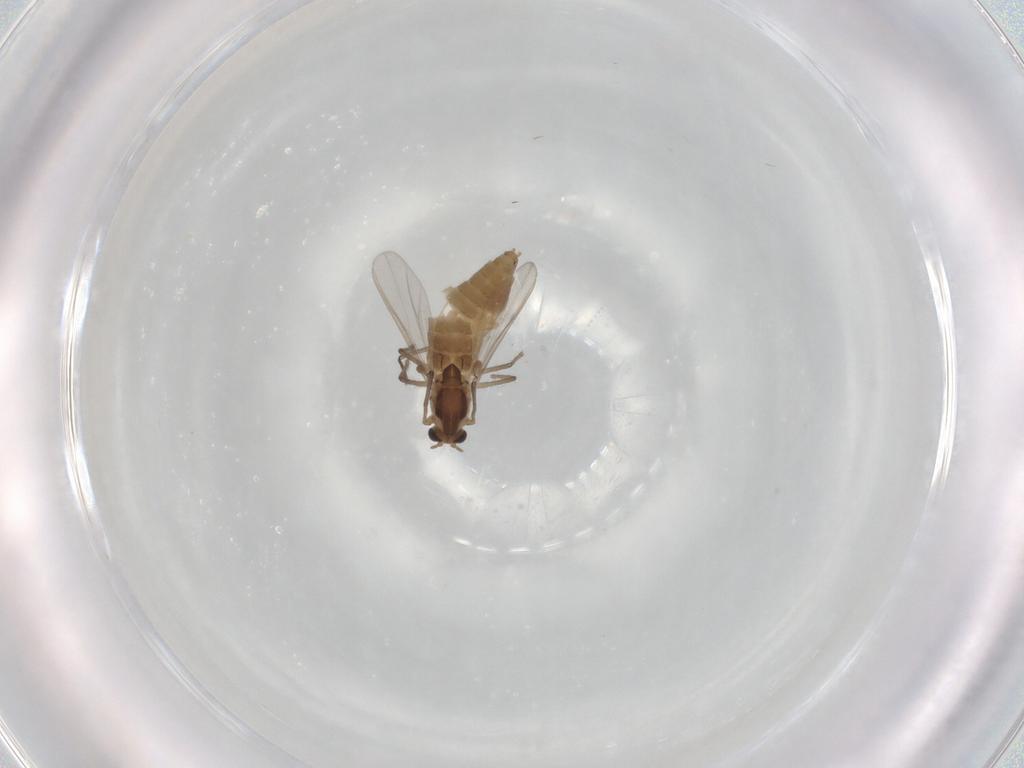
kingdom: Animalia
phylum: Arthropoda
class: Insecta
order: Diptera
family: Chironomidae
